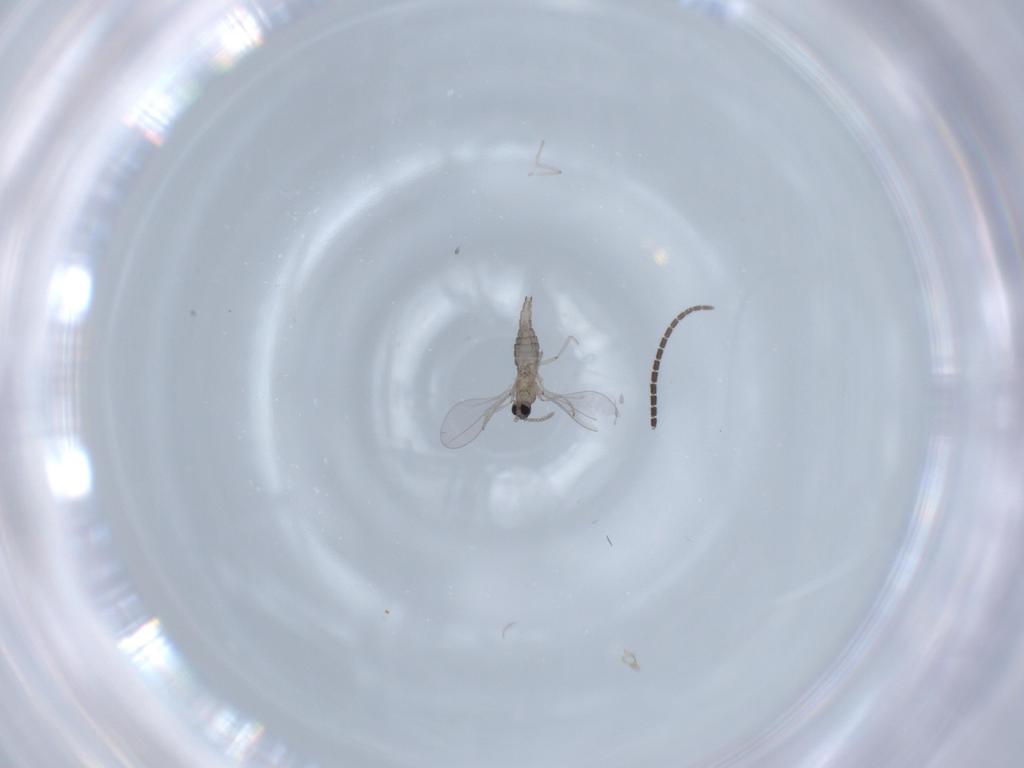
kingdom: Animalia
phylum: Arthropoda
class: Insecta
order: Diptera
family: Cecidomyiidae
